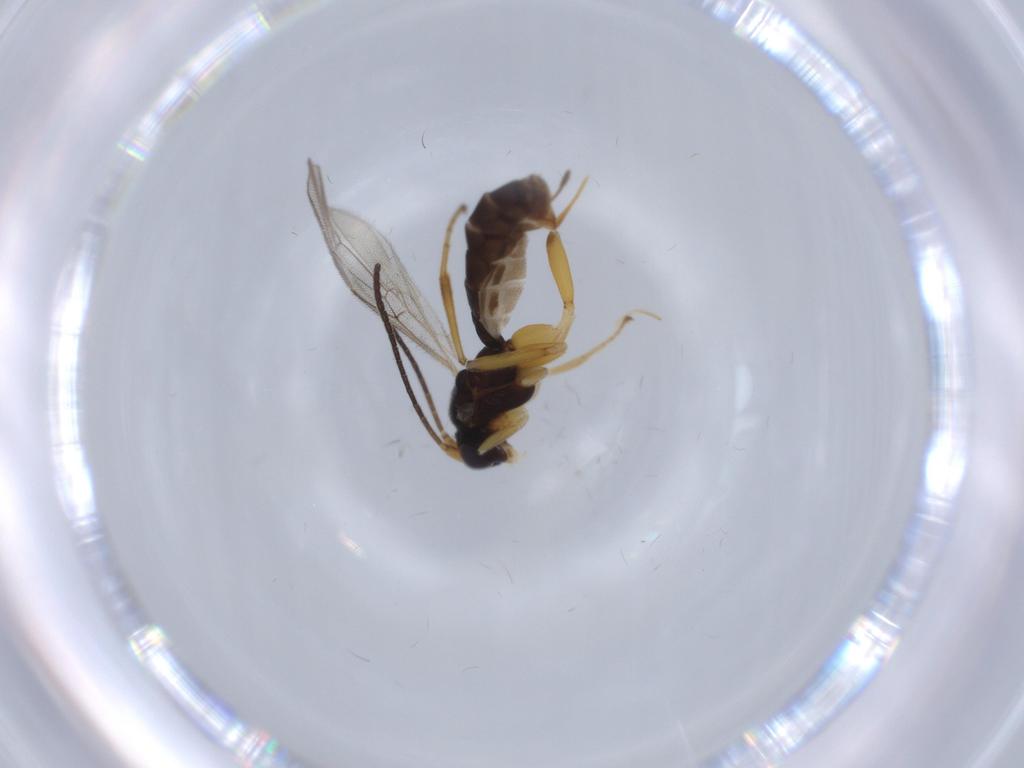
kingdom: Animalia
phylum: Arthropoda
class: Insecta
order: Hymenoptera
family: Ichneumonidae
